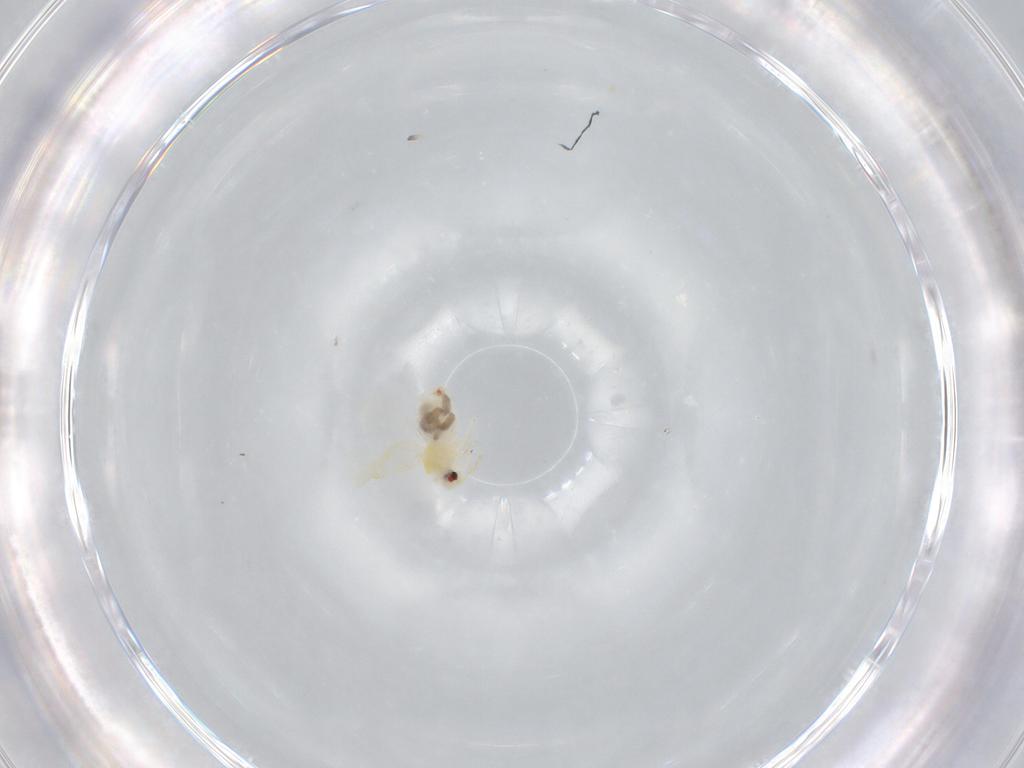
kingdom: Animalia
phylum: Arthropoda
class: Insecta
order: Hemiptera
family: Aleyrodidae
